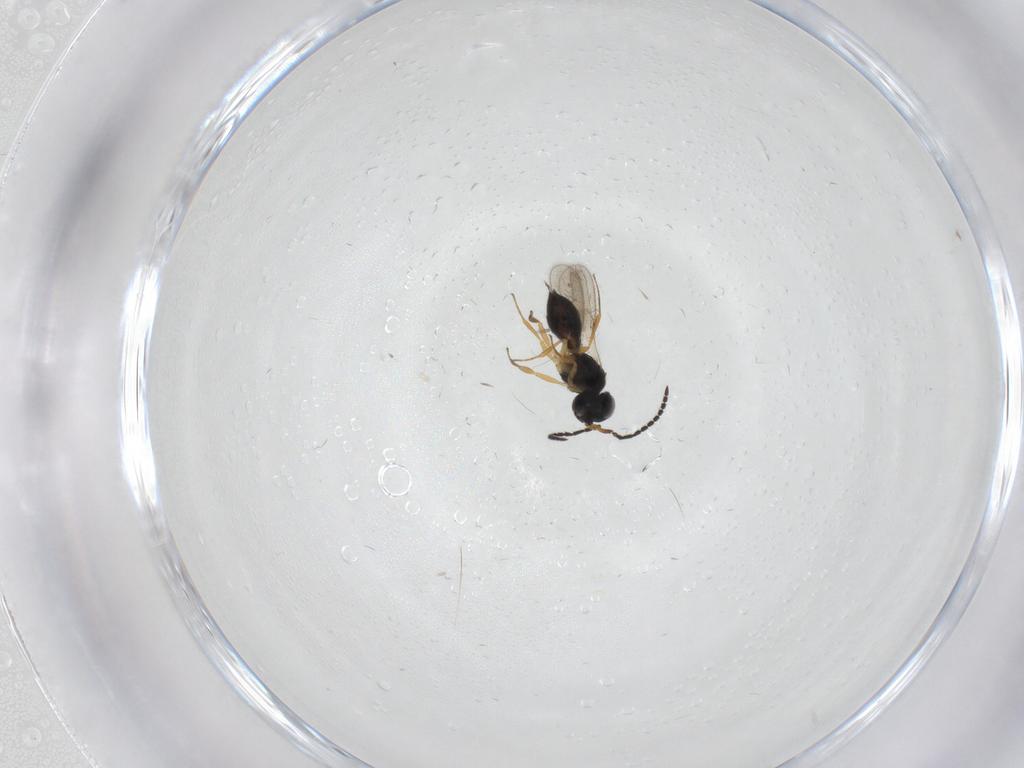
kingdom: Animalia
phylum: Arthropoda
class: Insecta
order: Hymenoptera
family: Scelionidae
